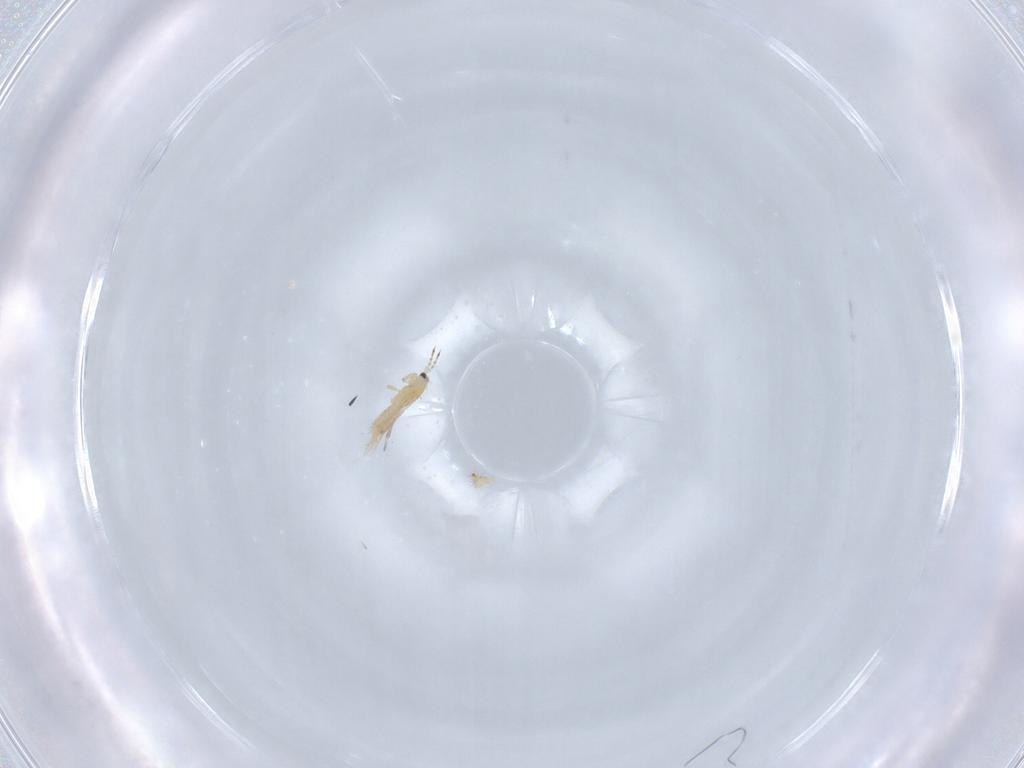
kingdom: Animalia
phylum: Arthropoda
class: Insecta
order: Thysanoptera
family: Thripidae
